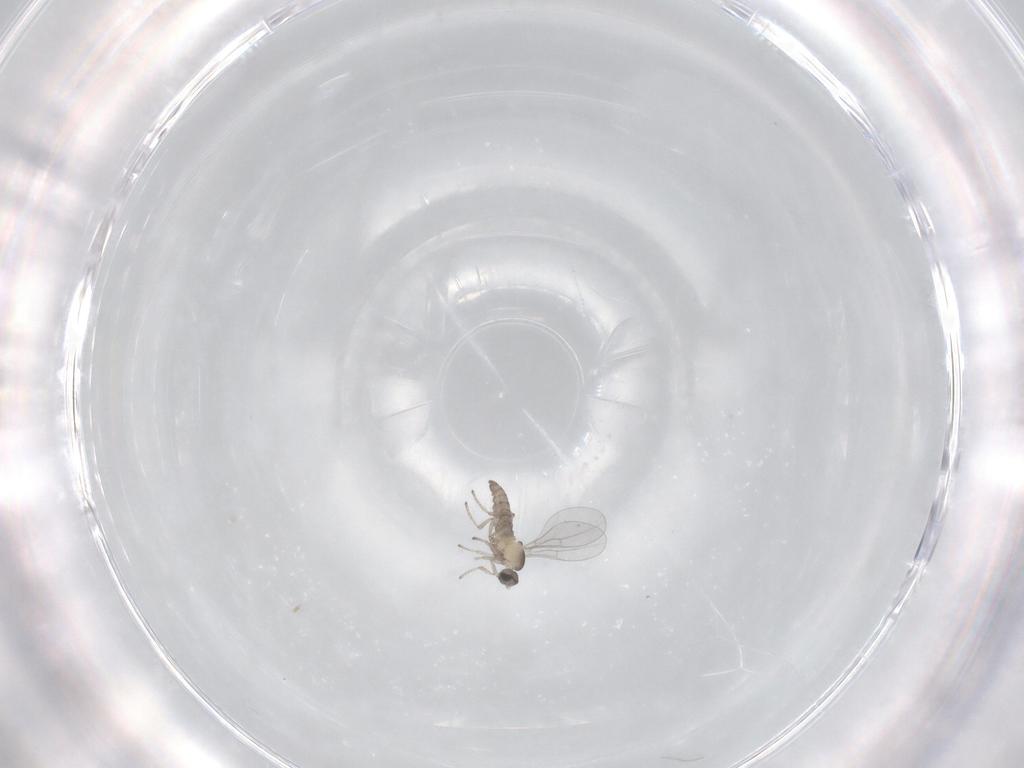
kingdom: Animalia
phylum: Arthropoda
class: Insecta
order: Diptera
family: Cecidomyiidae
